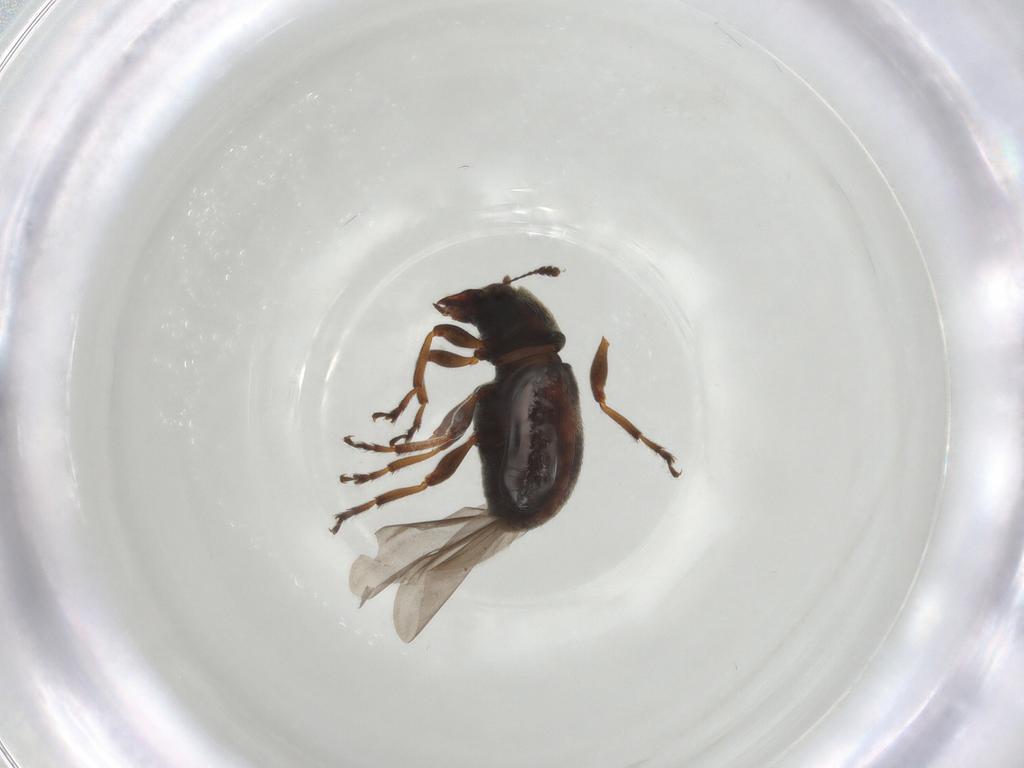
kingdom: Animalia
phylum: Arthropoda
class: Insecta
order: Coleoptera
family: Anthribidae
